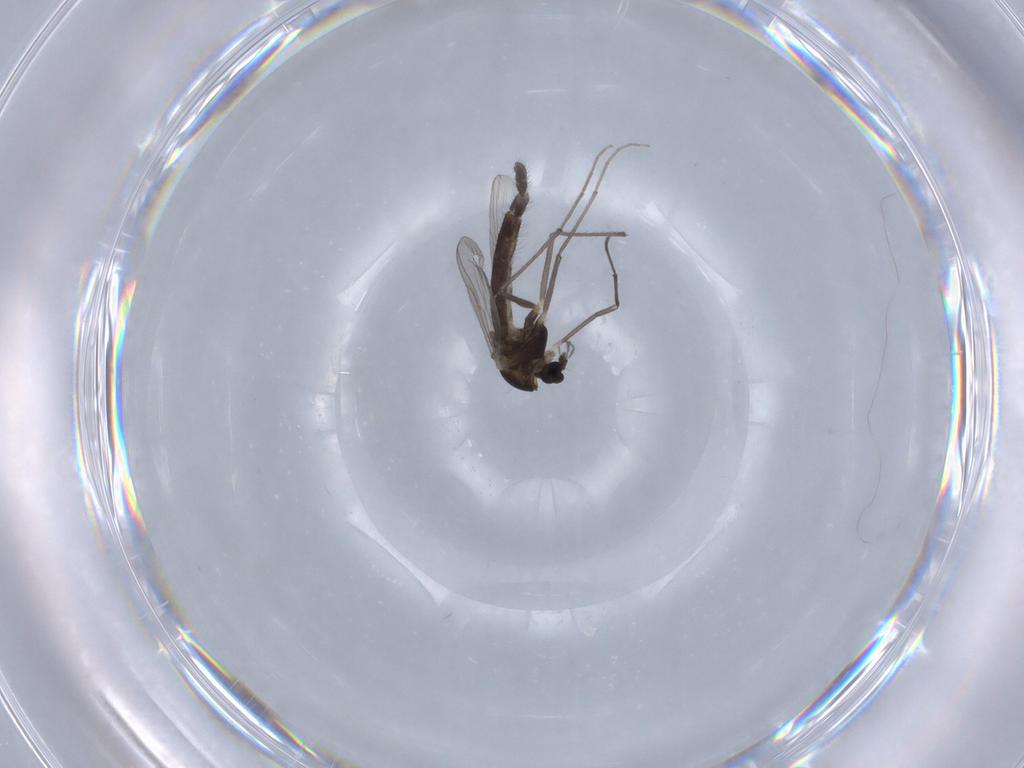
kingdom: Animalia
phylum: Arthropoda
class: Insecta
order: Diptera
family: Chironomidae
